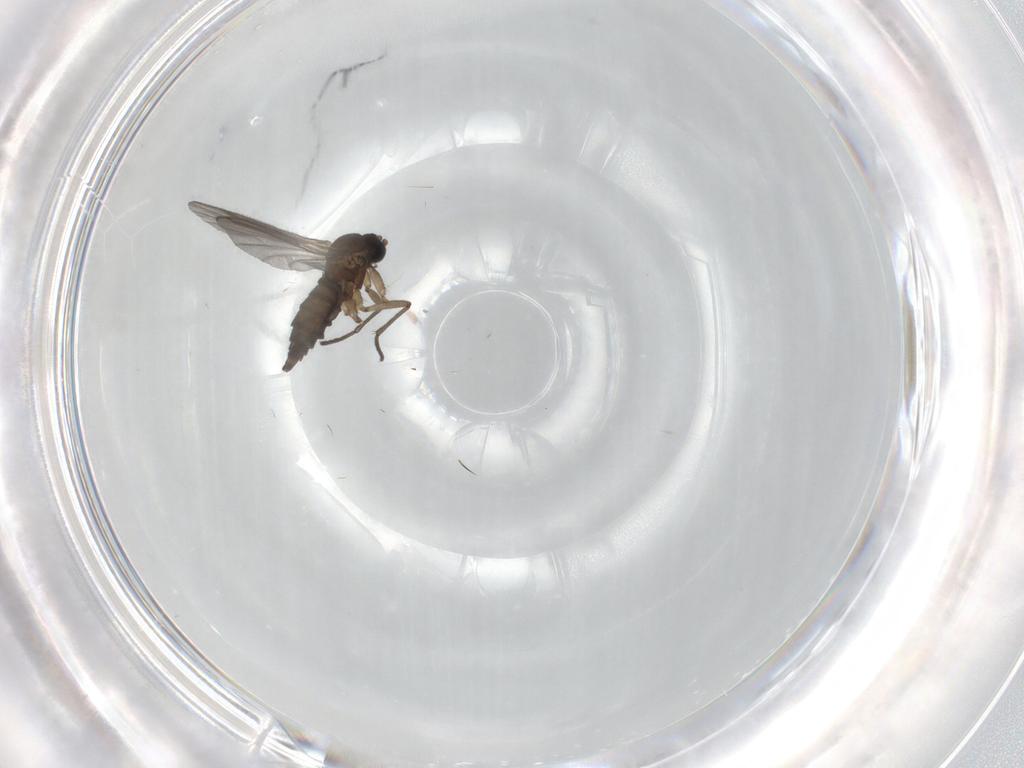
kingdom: Animalia
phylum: Arthropoda
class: Insecta
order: Diptera
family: Sciaridae
